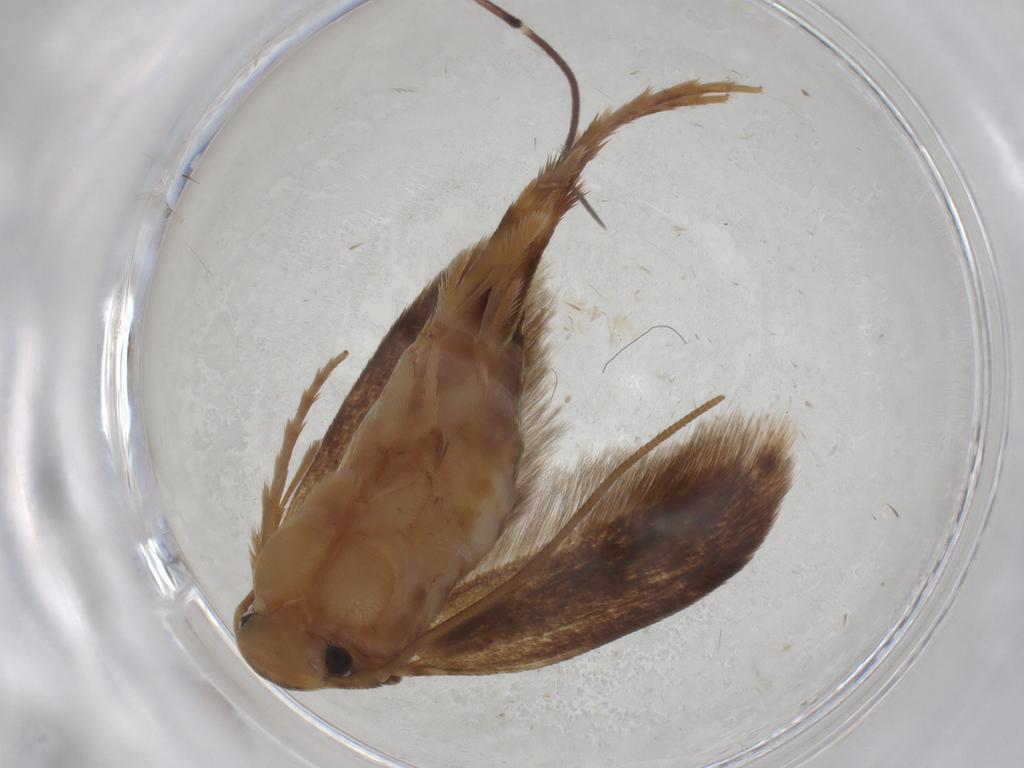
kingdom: Animalia
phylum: Arthropoda
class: Insecta
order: Lepidoptera
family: Tineidae
